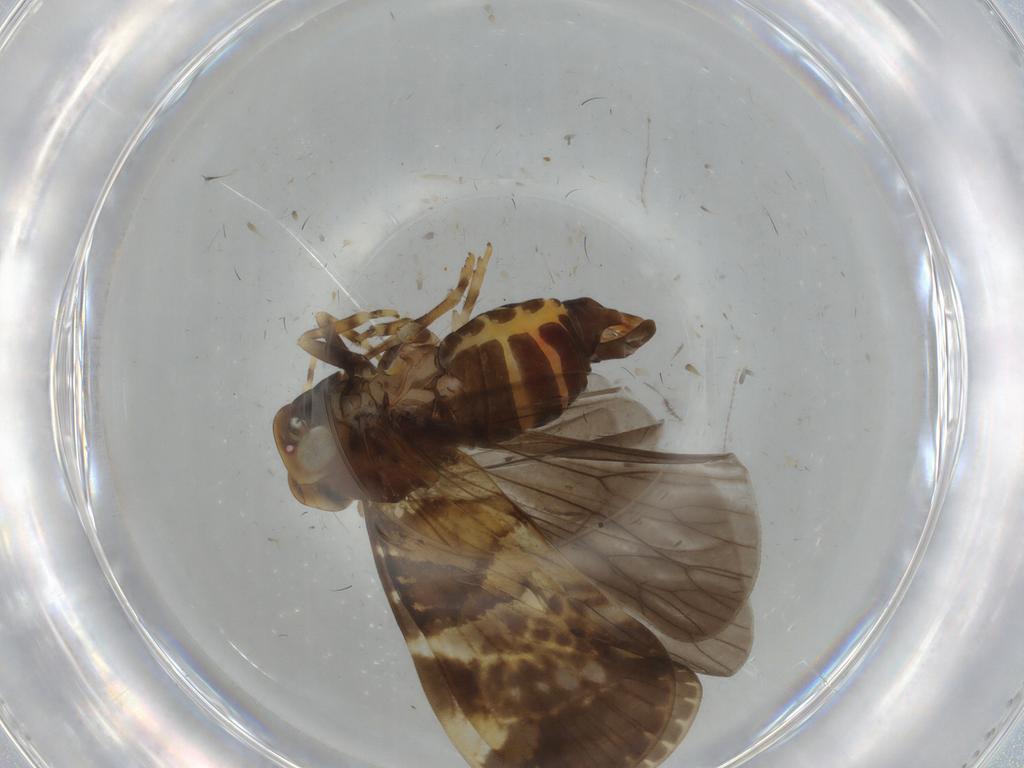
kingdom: Animalia
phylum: Arthropoda
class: Insecta
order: Hemiptera
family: Cixiidae
